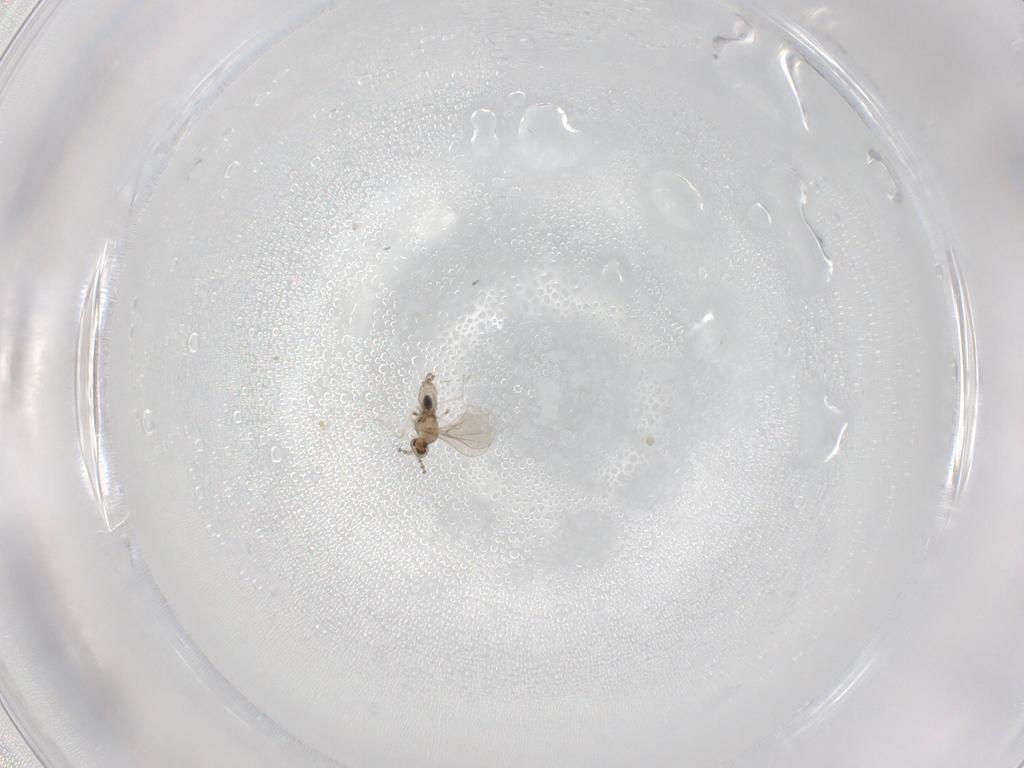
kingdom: Animalia
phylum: Arthropoda
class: Insecta
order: Diptera
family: Cecidomyiidae
